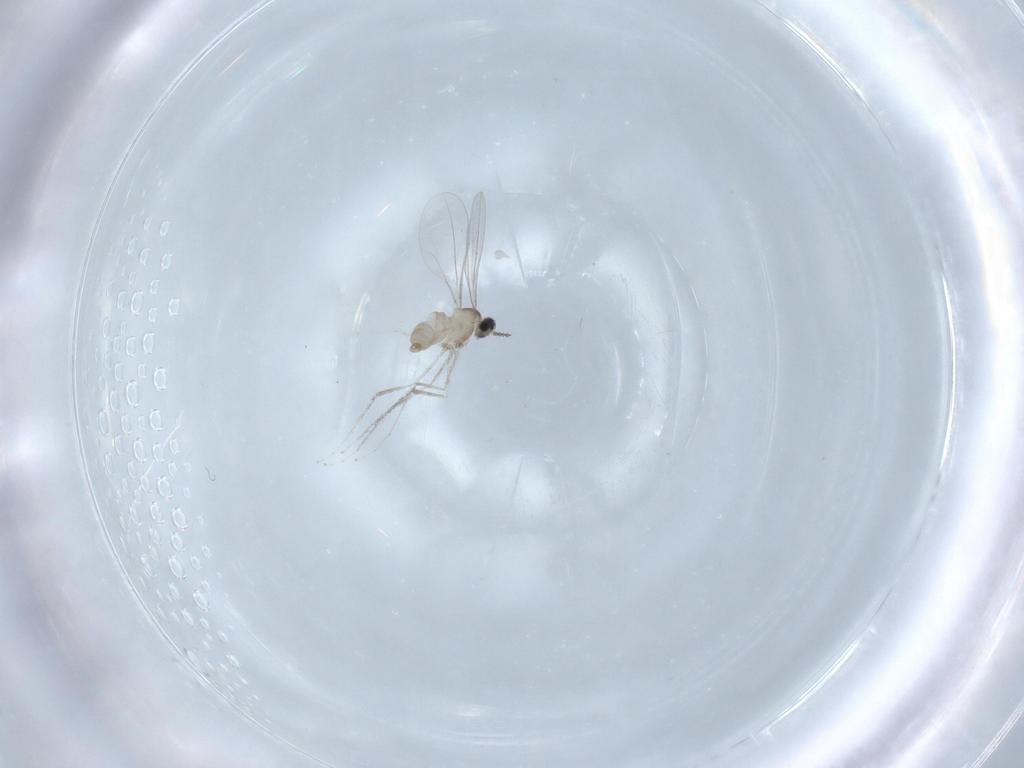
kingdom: Animalia
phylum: Arthropoda
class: Insecta
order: Diptera
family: Cecidomyiidae
